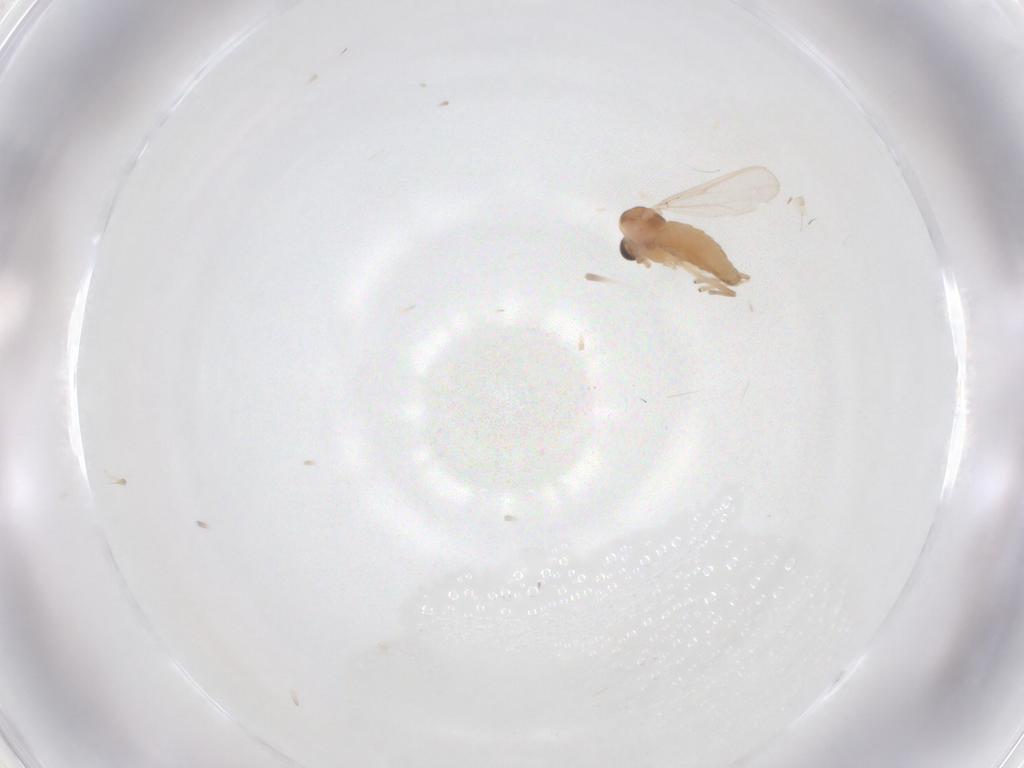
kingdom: Animalia
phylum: Arthropoda
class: Insecta
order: Diptera
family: Chironomidae
